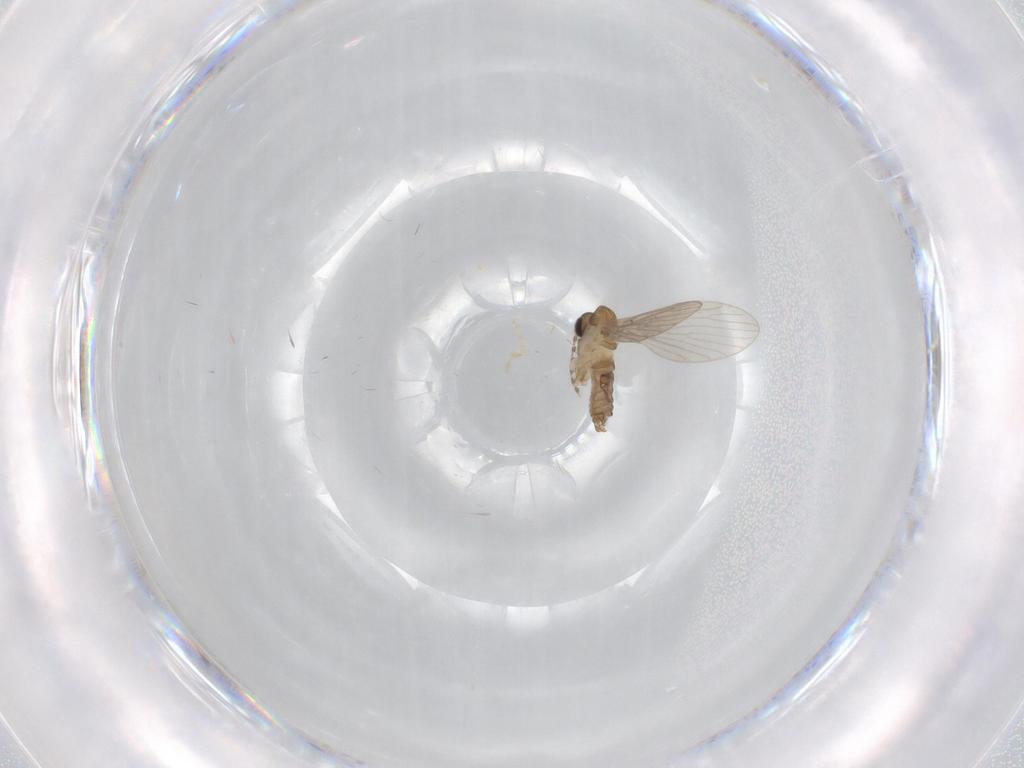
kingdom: Animalia
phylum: Arthropoda
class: Insecta
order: Diptera
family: Psychodidae
